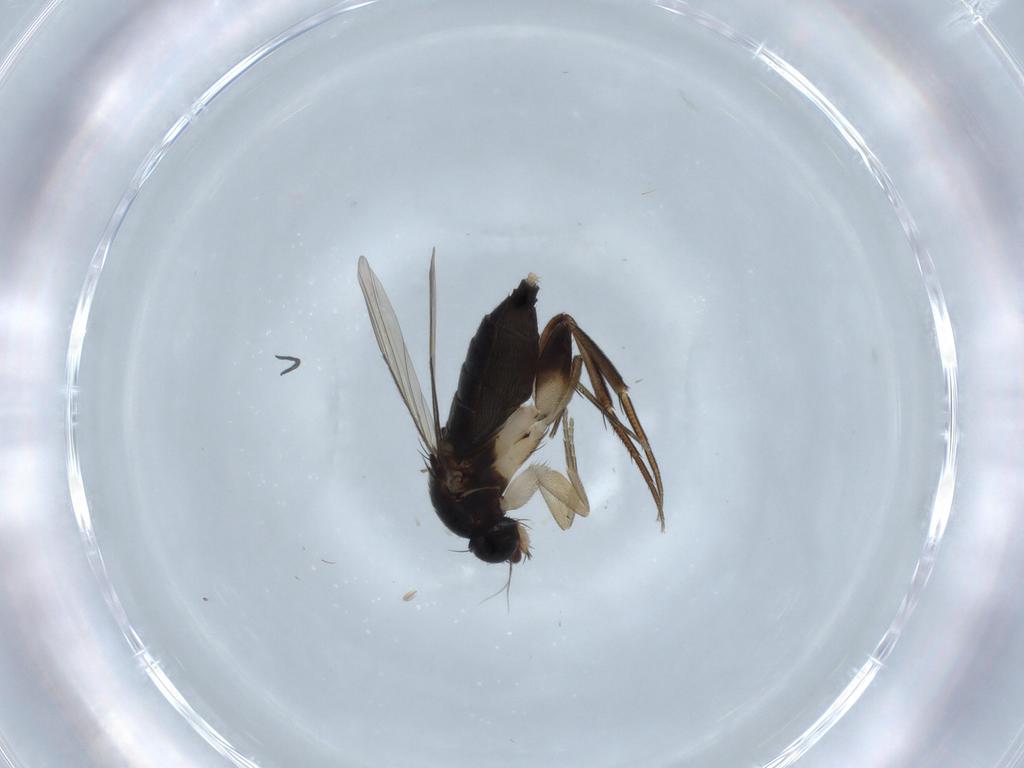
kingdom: Animalia
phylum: Arthropoda
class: Insecta
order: Diptera
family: Phoridae
